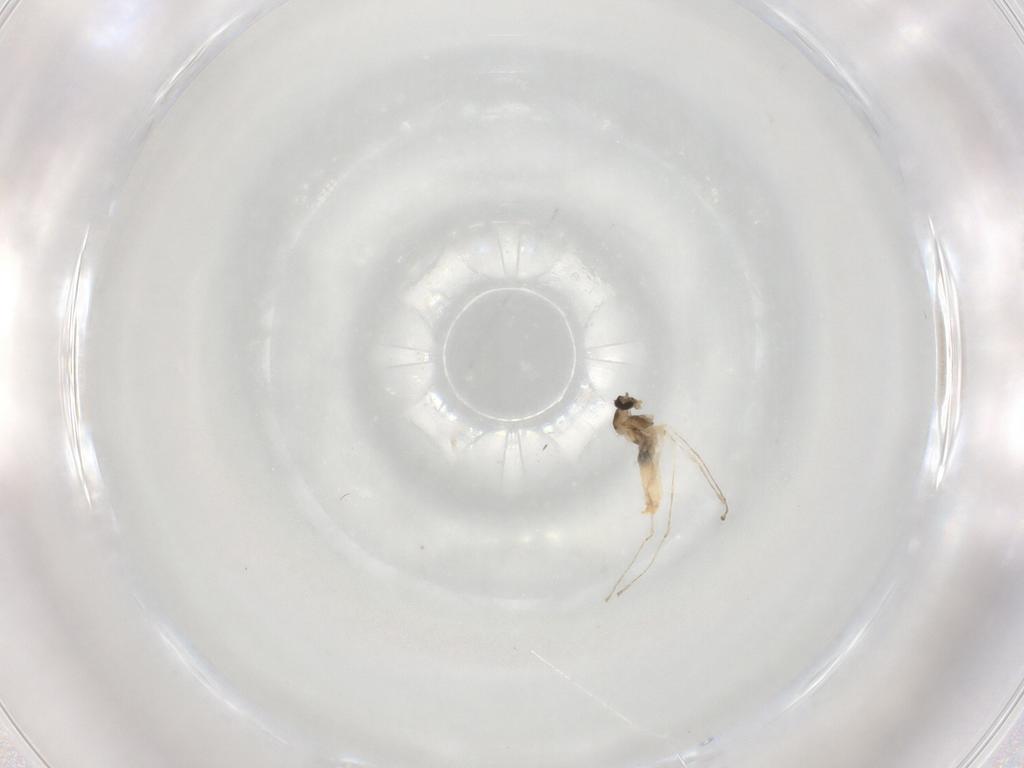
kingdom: Animalia
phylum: Arthropoda
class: Insecta
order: Diptera
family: Cecidomyiidae
